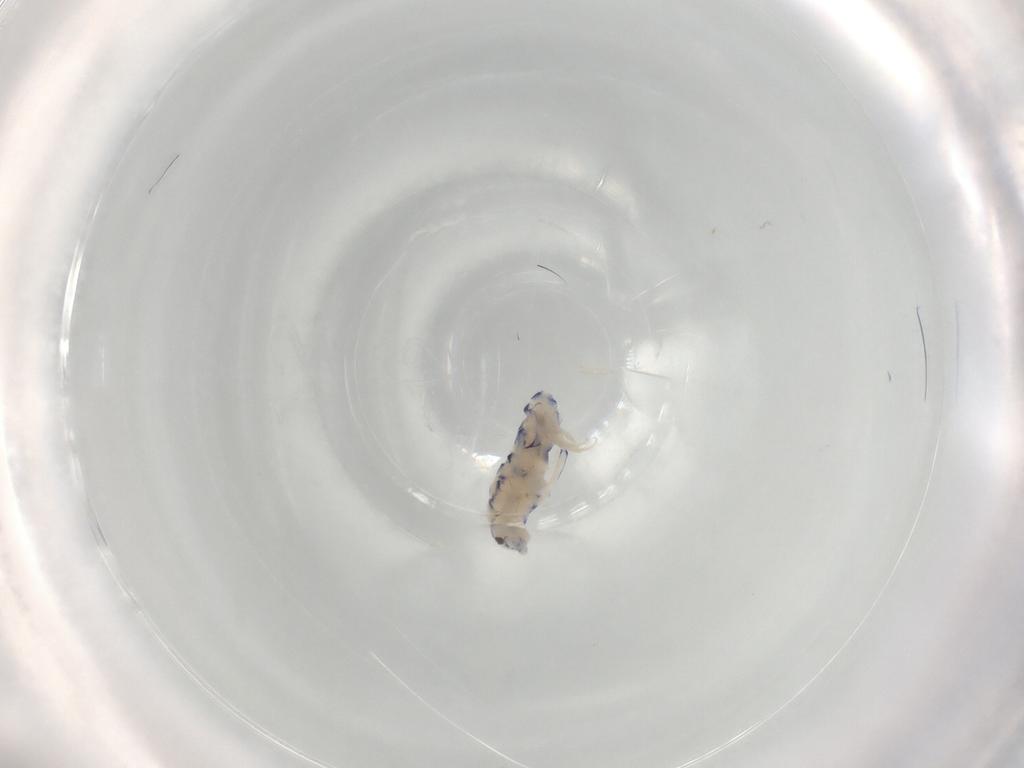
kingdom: Animalia
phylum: Arthropoda
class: Collembola
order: Entomobryomorpha
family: Entomobryidae
